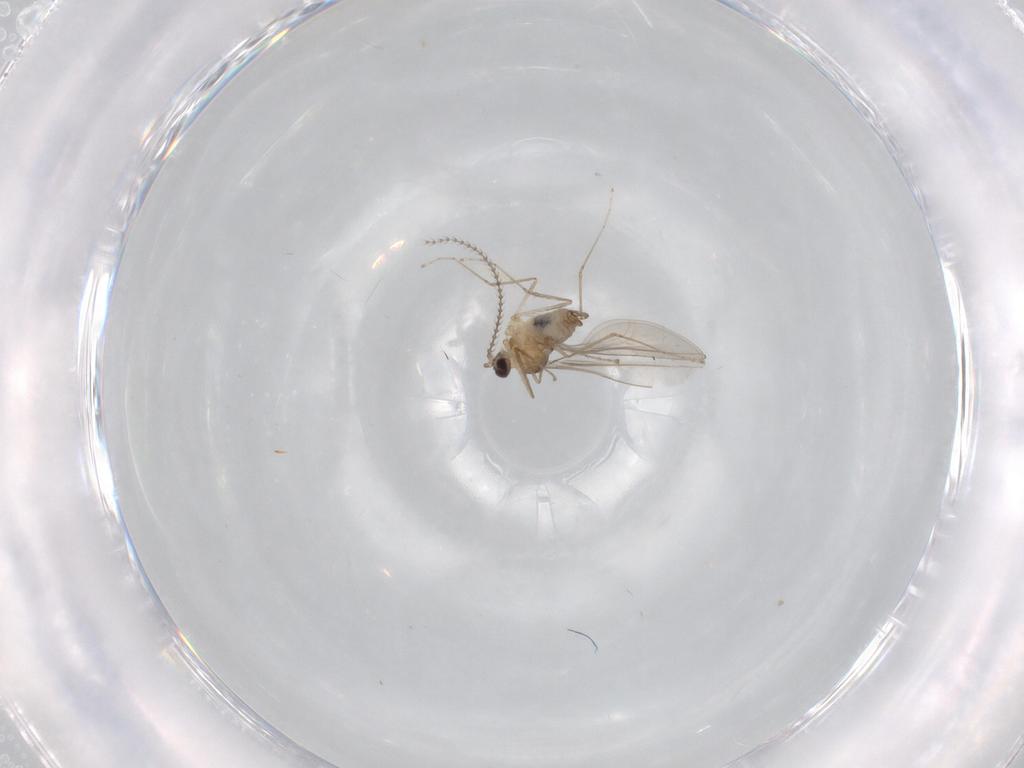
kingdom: Animalia
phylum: Arthropoda
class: Insecta
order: Diptera
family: Cecidomyiidae
